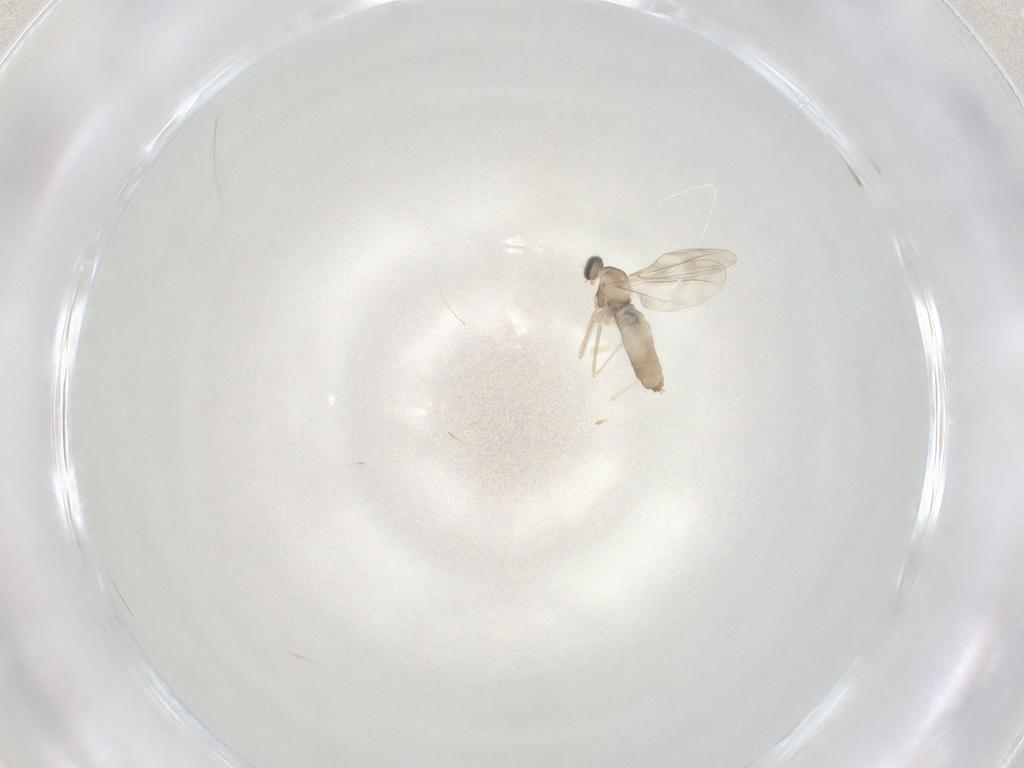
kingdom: Animalia
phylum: Arthropoda
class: Insecta
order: Diptera
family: Cecidomyiidae
